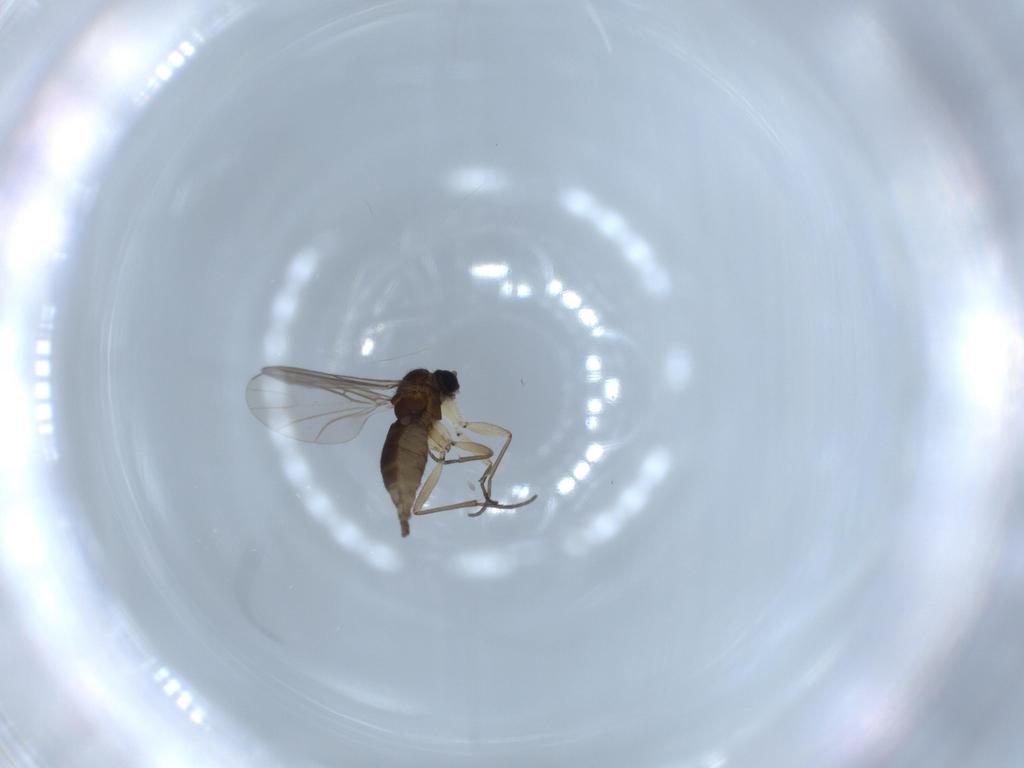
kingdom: Animalia
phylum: Arthropoda
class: Insecta
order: Diptera
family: Sciaridae
